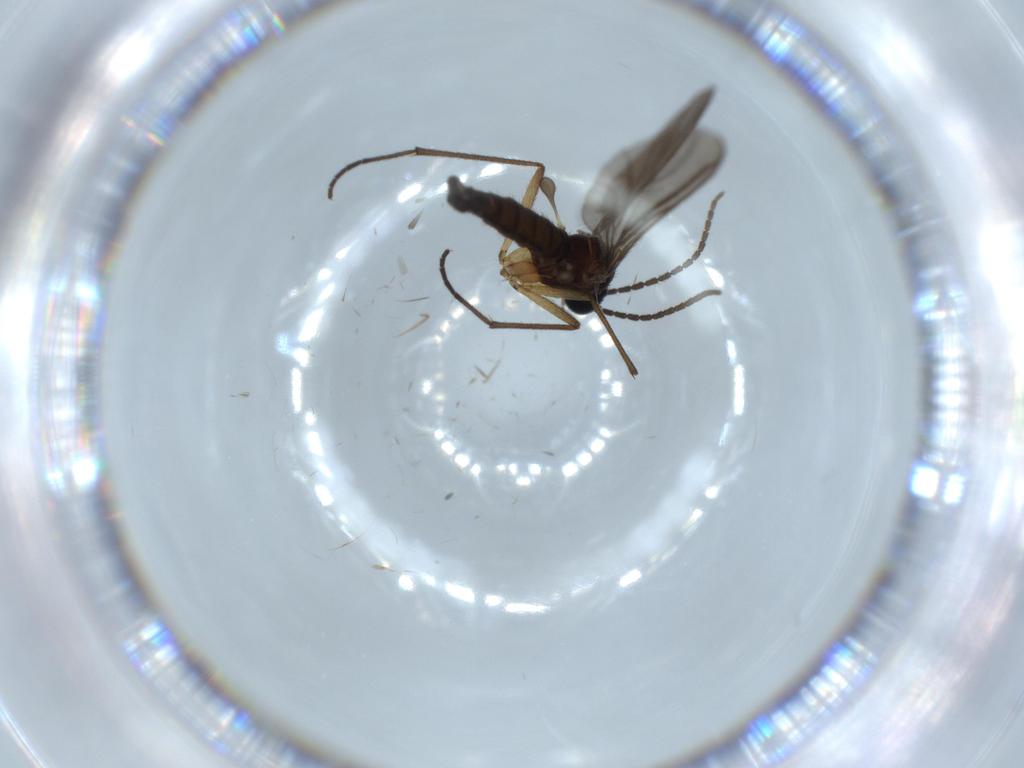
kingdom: Animalia
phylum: Arthropoda
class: Insecta
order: Diptera
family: Sciaridae
